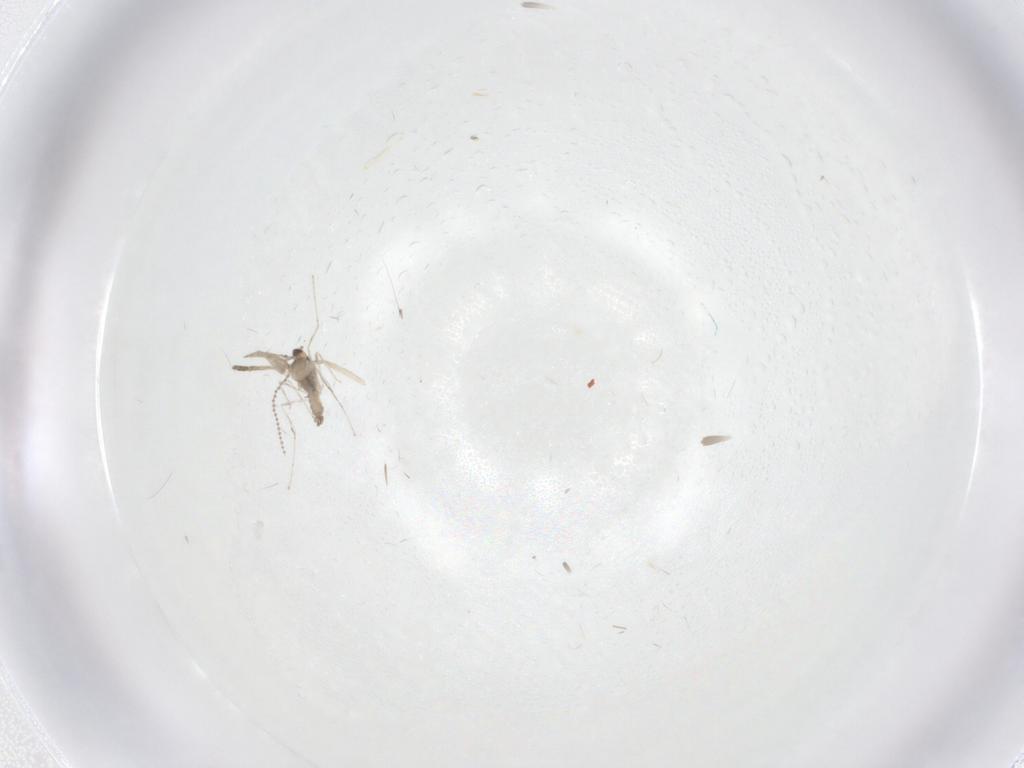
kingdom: Animalia
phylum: Arthropoda
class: Insecta
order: Diptera
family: Psychodidae
